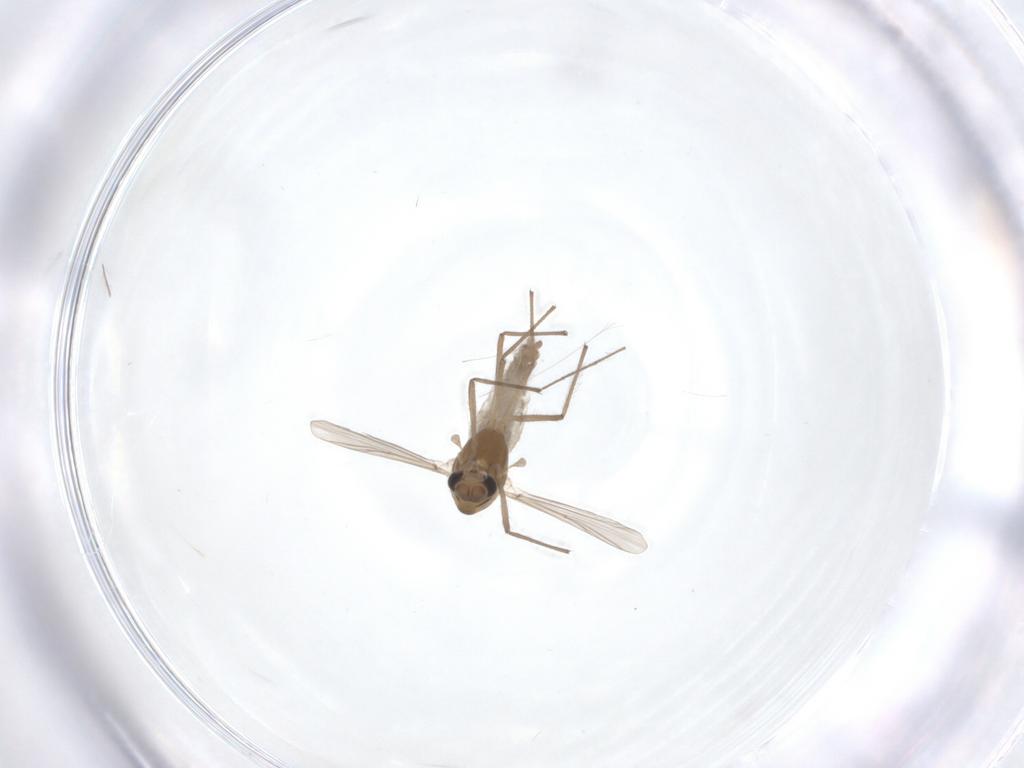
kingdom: Animalia
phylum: Arthropoda
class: Insecta
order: Diptera
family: Chironomidae
